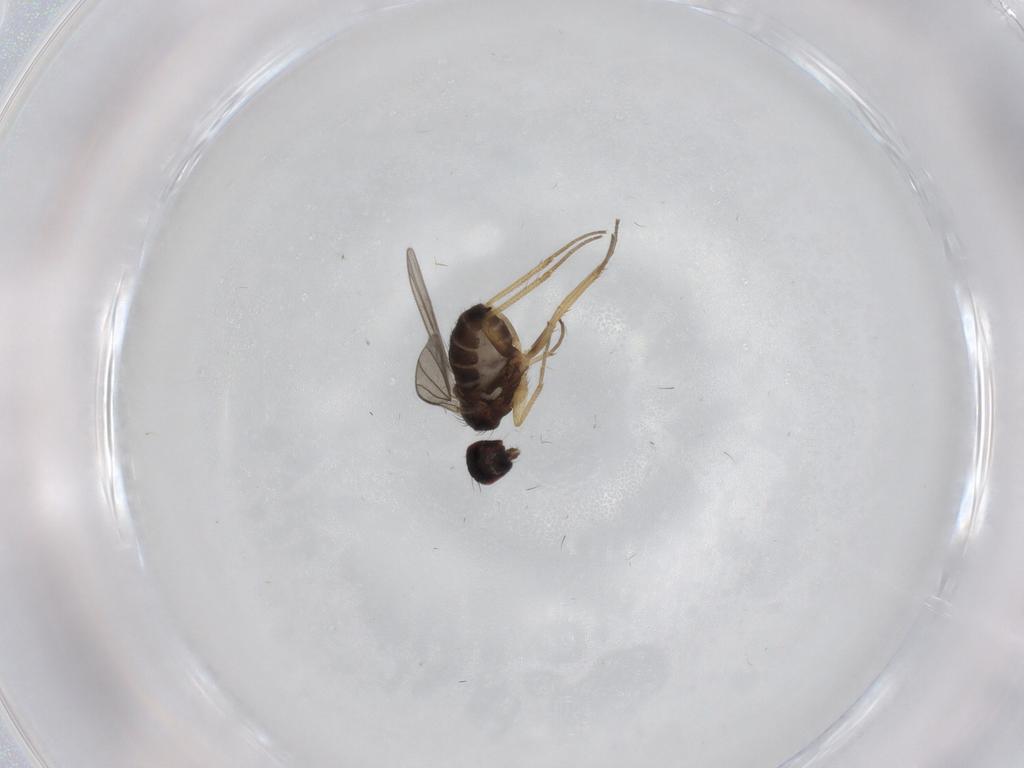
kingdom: Animalia
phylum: Arthropoda
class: Insecta
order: Diptera
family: Dolichopodidae
